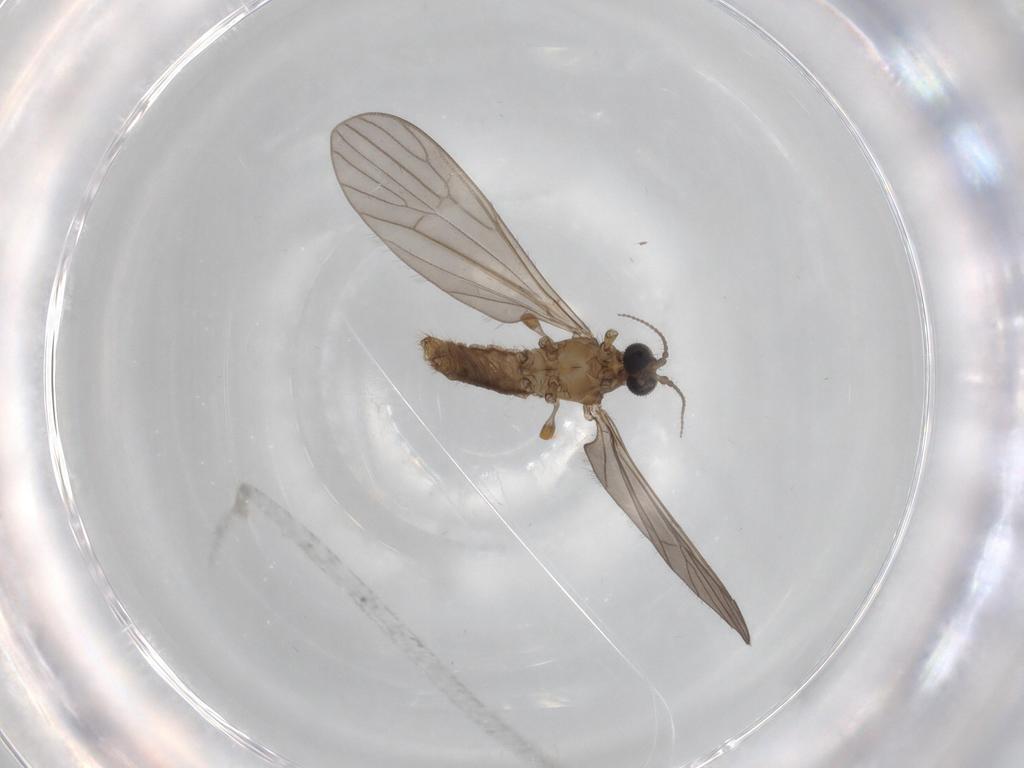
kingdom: Animalia
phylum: Arthropoda
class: Insecta
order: Diptera
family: Limoniidae
